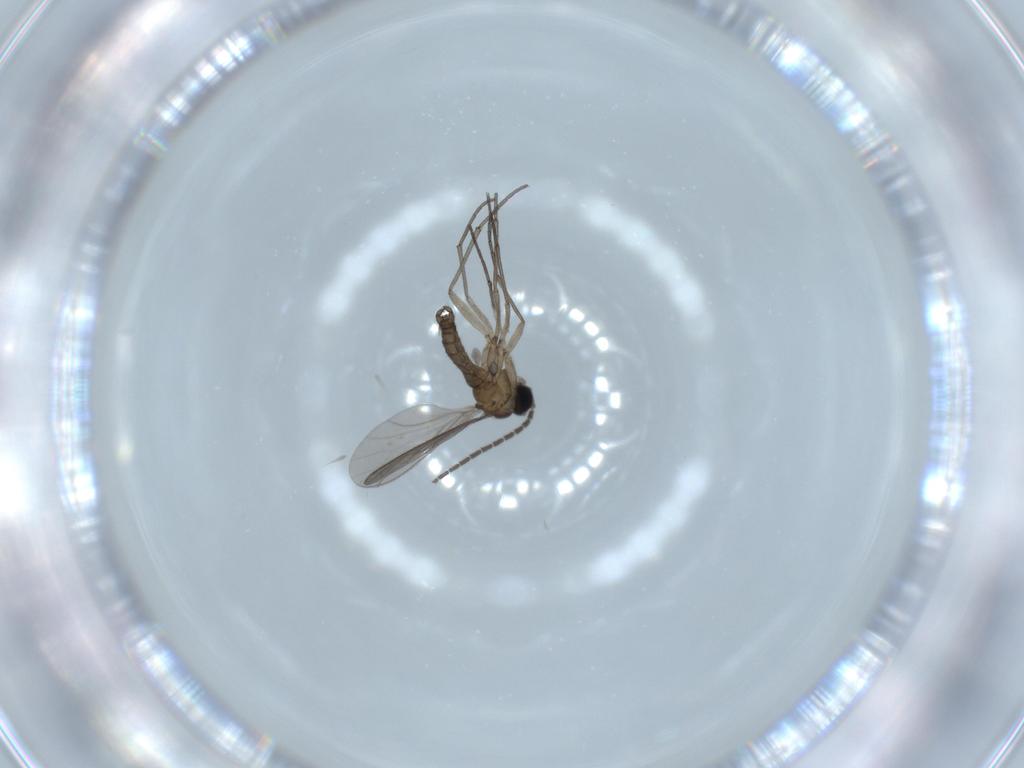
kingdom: Animalia
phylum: Arthropoda
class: Insecta
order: Diptera
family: Sciaridae
